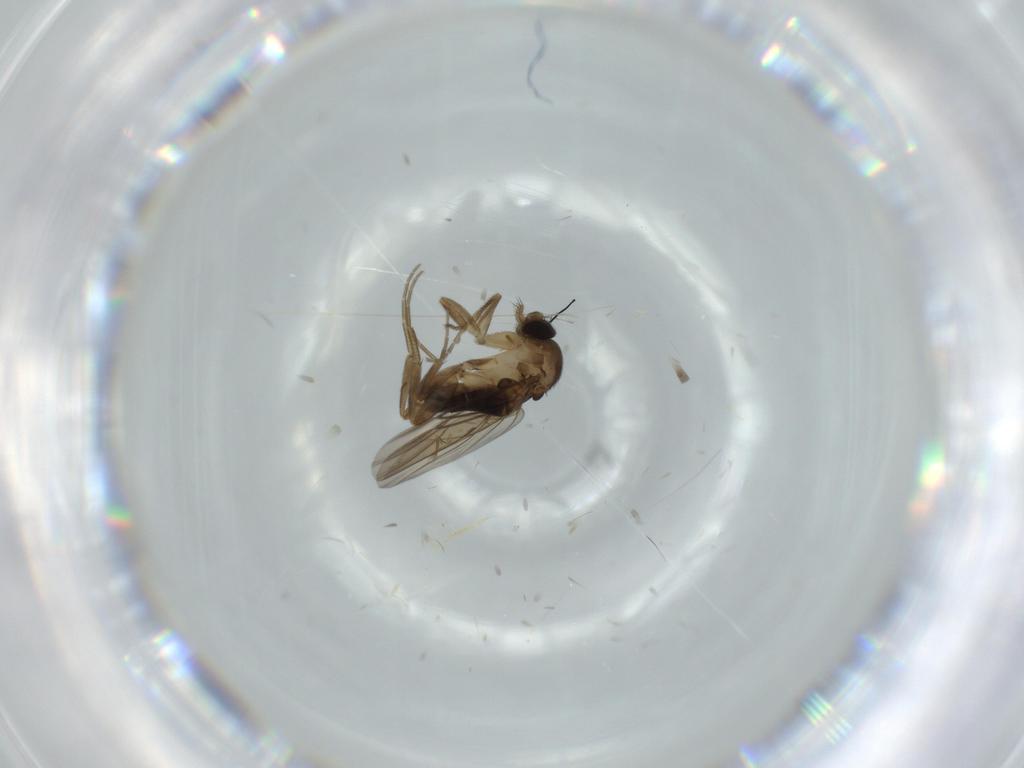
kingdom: Animalia
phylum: Arthropoda
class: Insecta
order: Diptera
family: Phoridae
